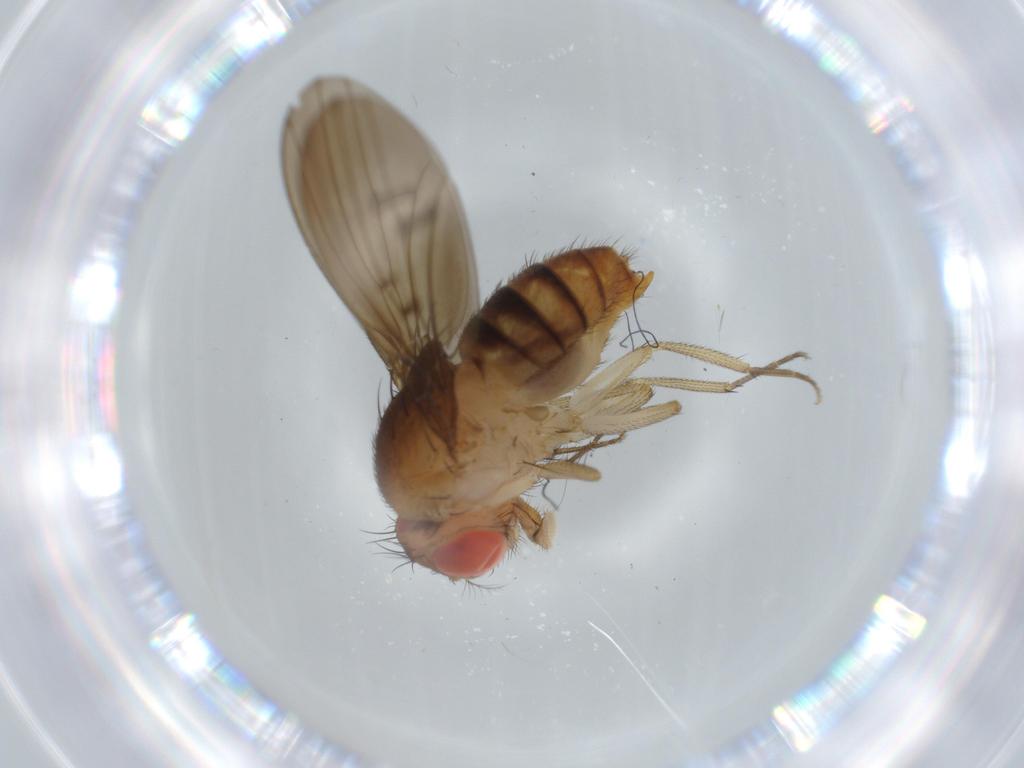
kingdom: Animalia
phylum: Arthropoda
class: Insecta
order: Diptera
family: Drosophilidae
